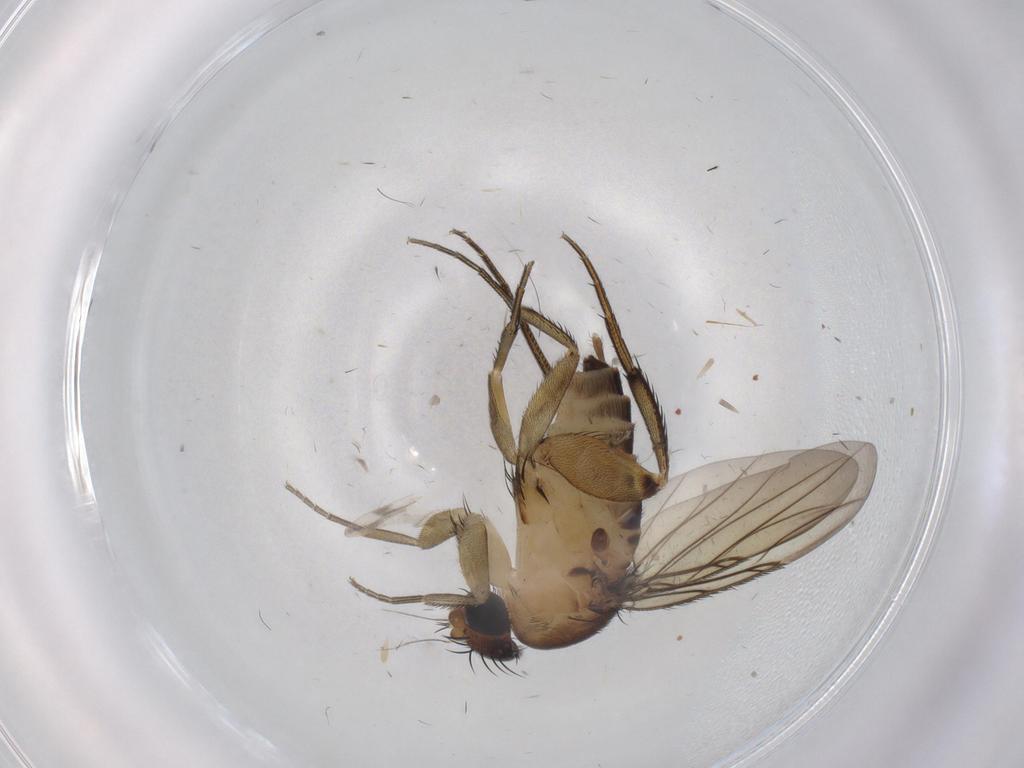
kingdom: Animalia
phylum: Arthropoda
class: Insecta
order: Diptera
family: Phoridae
